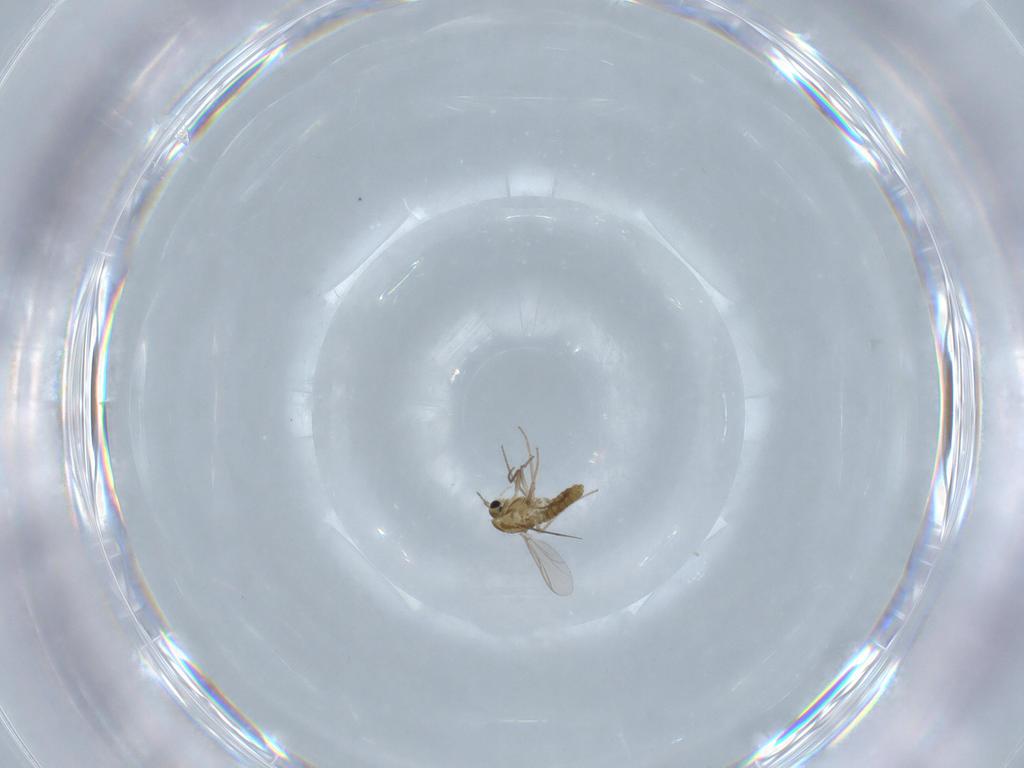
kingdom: Animalia
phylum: Arthropoda
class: Insecta
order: Diptera
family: Chironomidae
